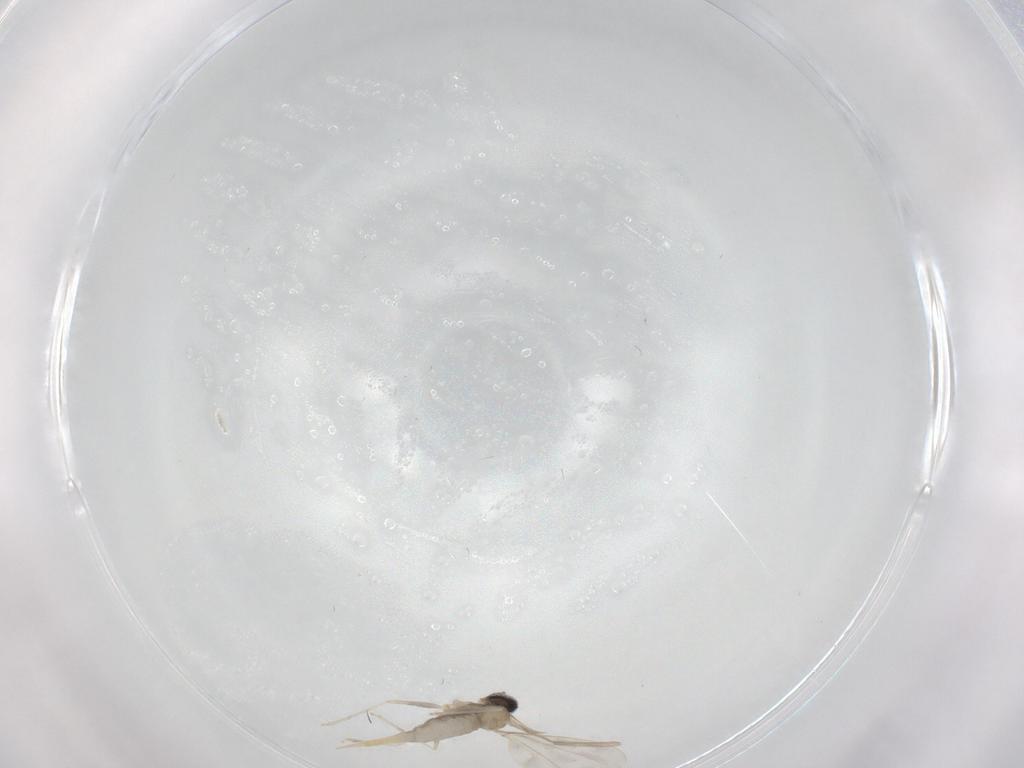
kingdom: Animalia
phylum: Arthropoda
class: Insecta
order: Diptera
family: Cecidomyiidae
